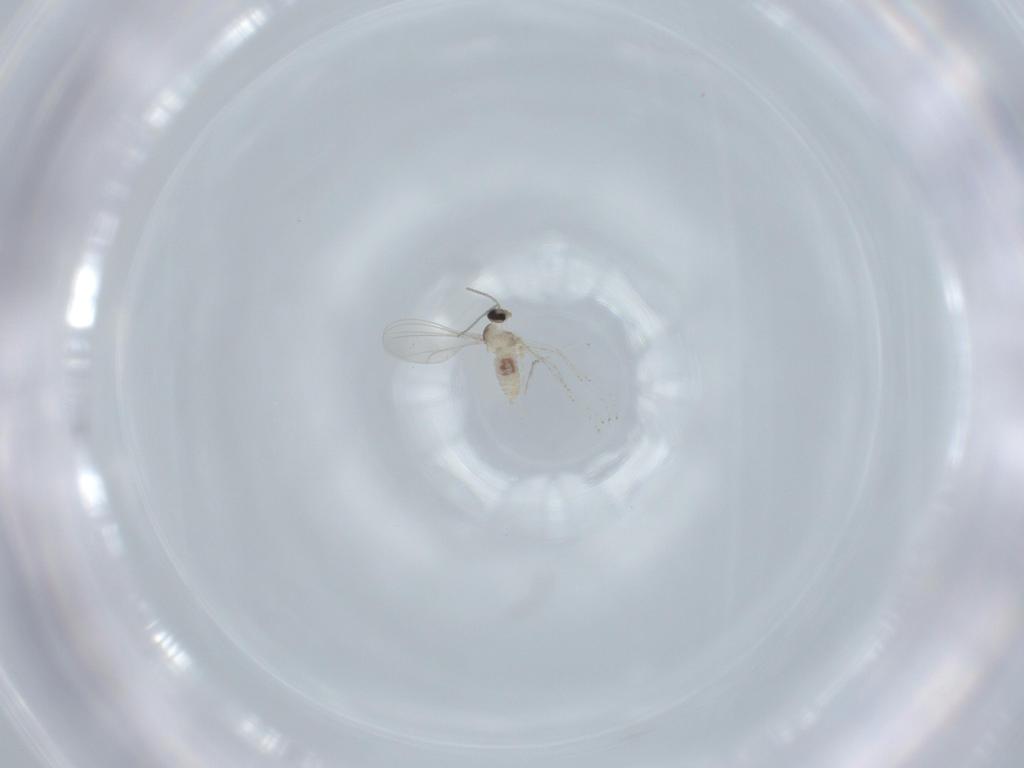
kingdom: Animalia
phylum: Arthropoda
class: Insecta
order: Diptera
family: Cecidomyiidae
